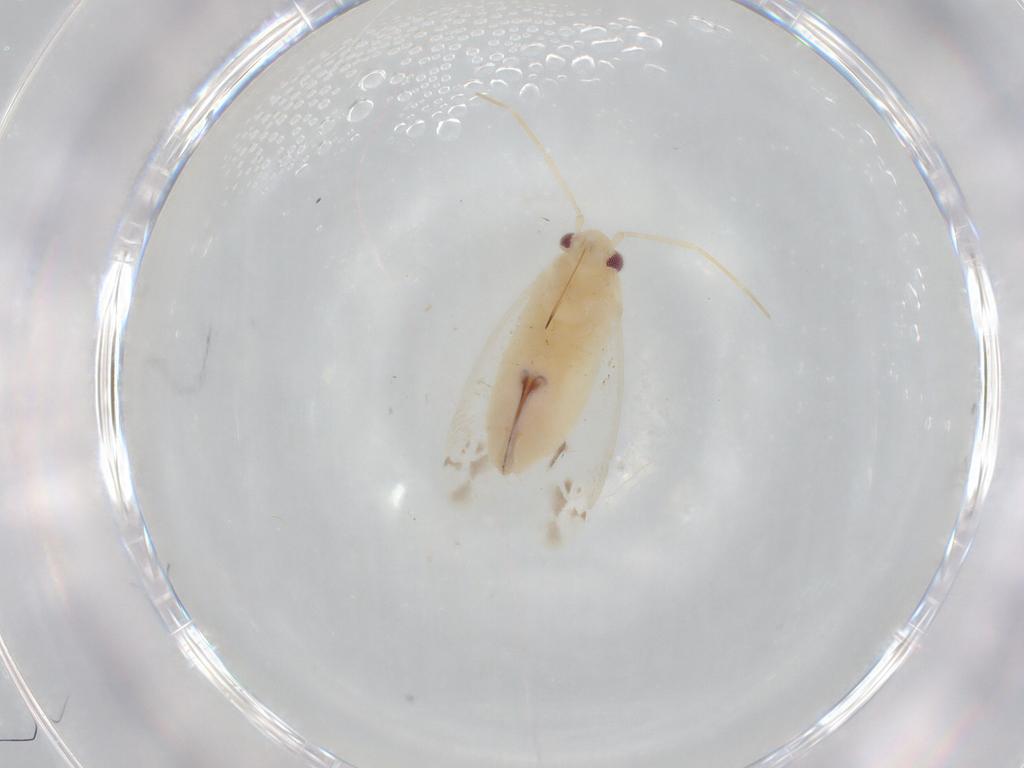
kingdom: Animalia
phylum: Arthropoda
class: Insecta
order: Hemiptera
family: Miridae
